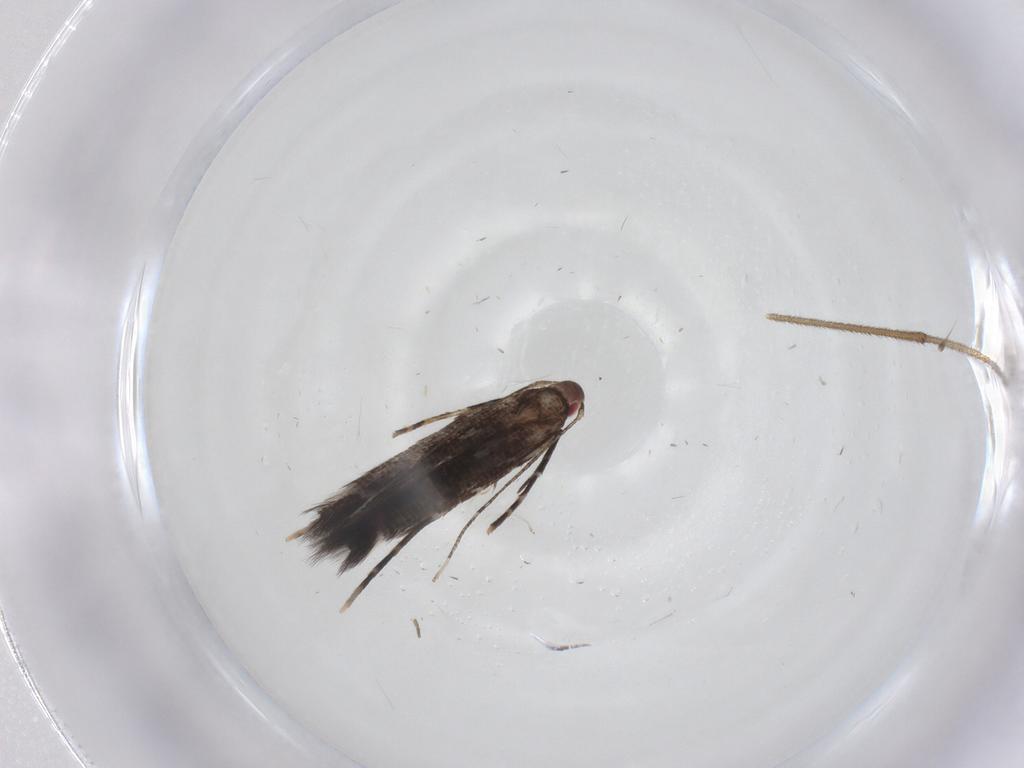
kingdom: Animalia
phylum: Arthropoda
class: Insecta
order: Lepidoptera
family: Cosmopterigidae
